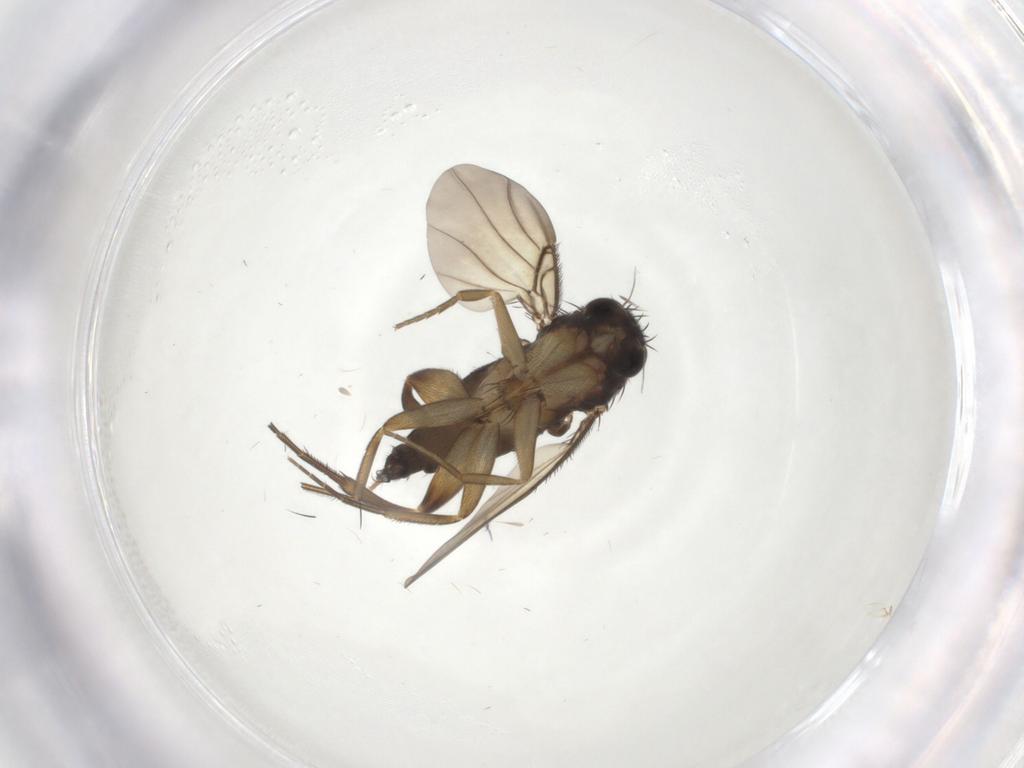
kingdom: Animalia
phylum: Arthropoda
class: Insecta
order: Diptera
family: Phoridae
